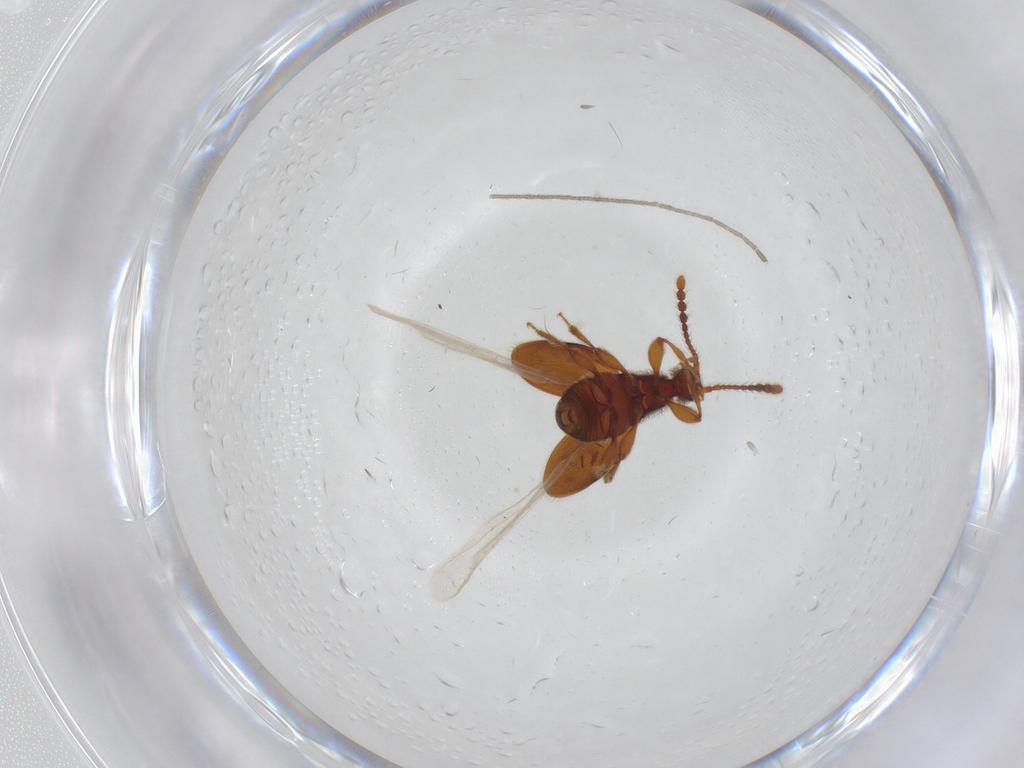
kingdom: Animalia
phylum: Arthropoda
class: Insecta
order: Coleoptera
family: Staphylinidae
